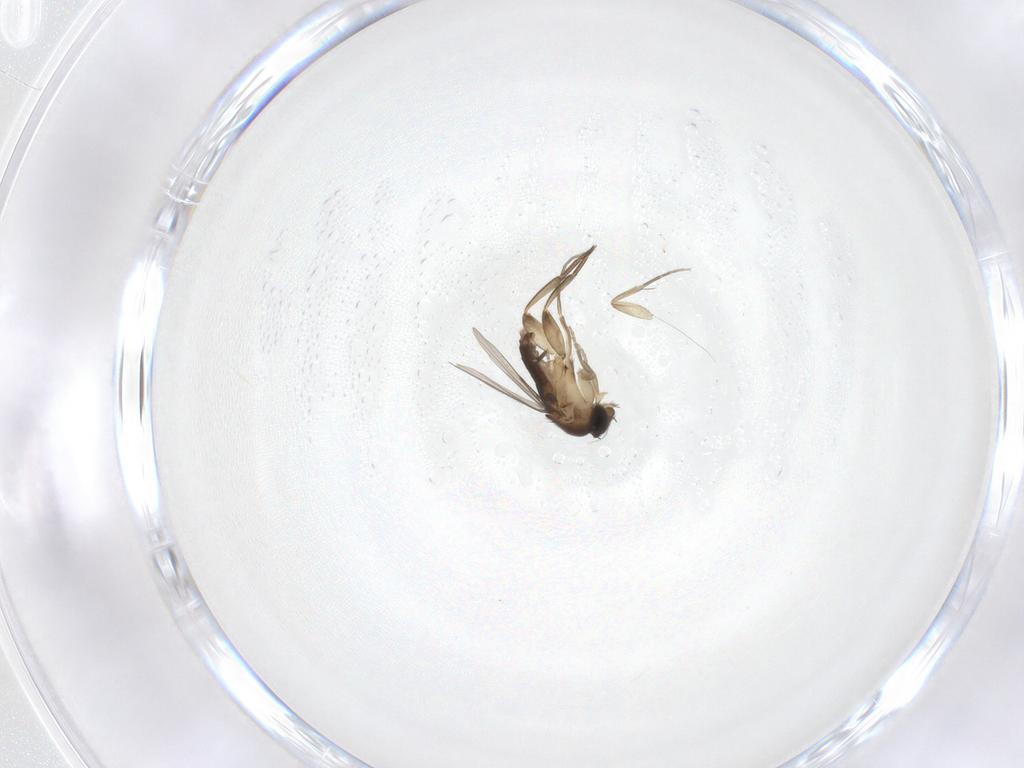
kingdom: Animalia
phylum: Arthropoda
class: Insecta
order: Diptera
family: Phoridae
